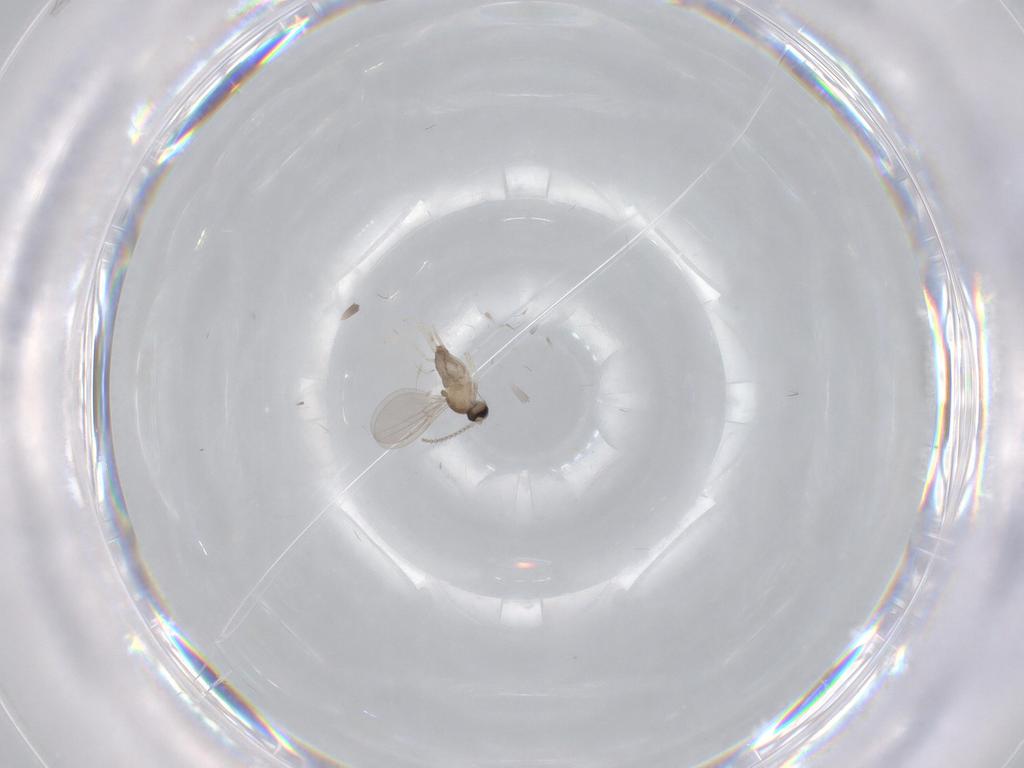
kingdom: Animalia
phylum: Arthropoda
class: Insecta
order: Diptera
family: Cecidomyiidae
